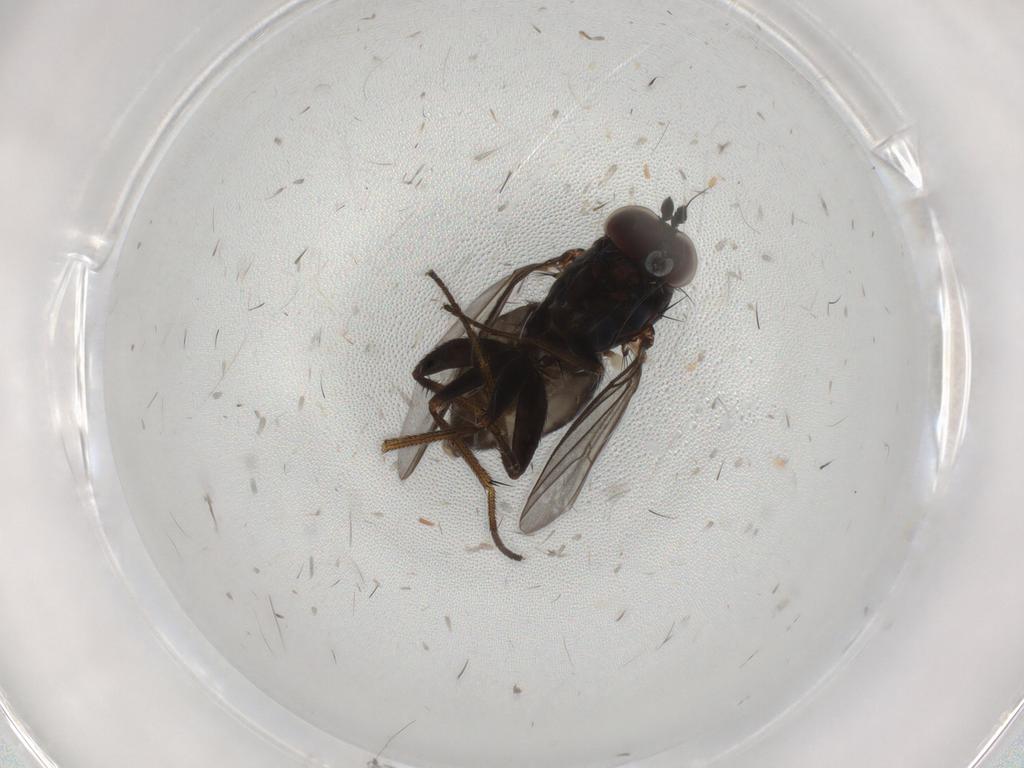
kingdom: Animalia
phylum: Arthropoda
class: Insecta
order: Diptera
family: Dolichopodidae
